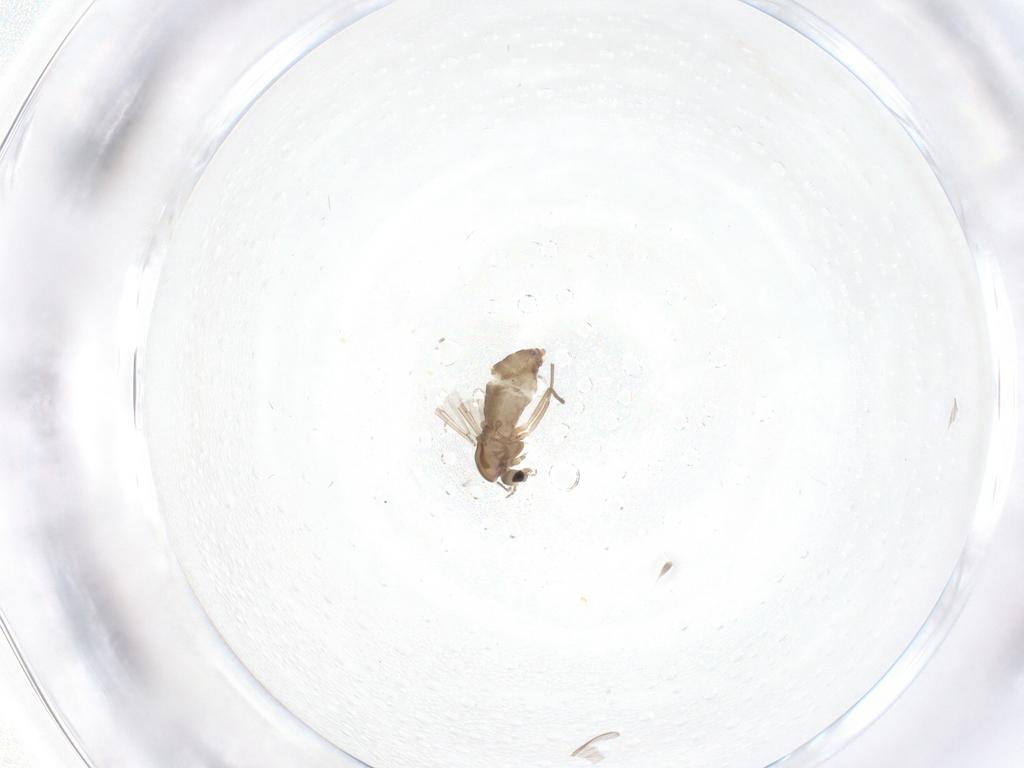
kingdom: Animalia
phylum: Arthropoda
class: Insecta
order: Diptera
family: Chironomidae
